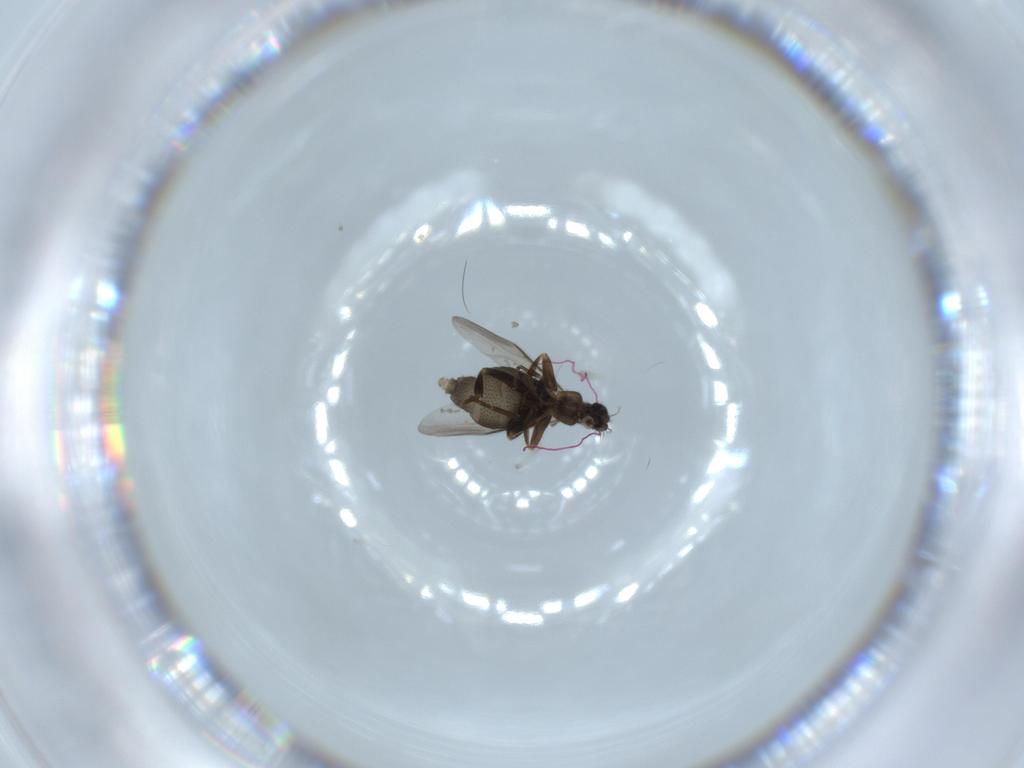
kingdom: Animalia
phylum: Arthropoda
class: Insecta
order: Diptera
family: Phoridae
